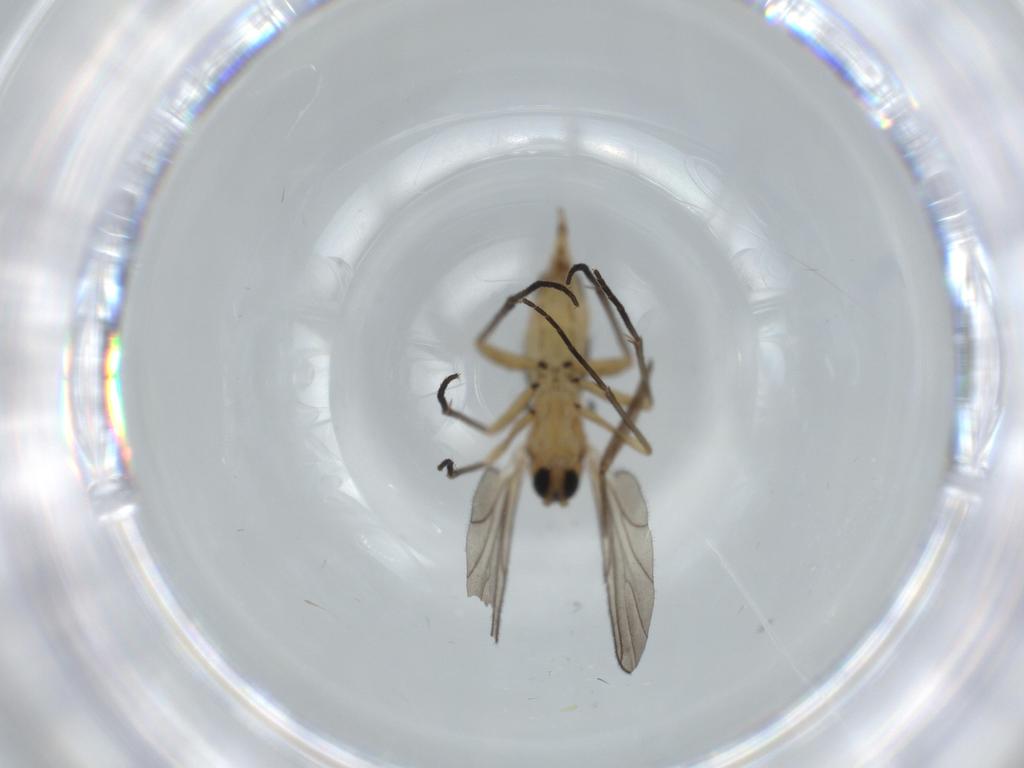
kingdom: Animalia
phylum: Arthropoda
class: Insecta
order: Diptera
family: Sciaridae
